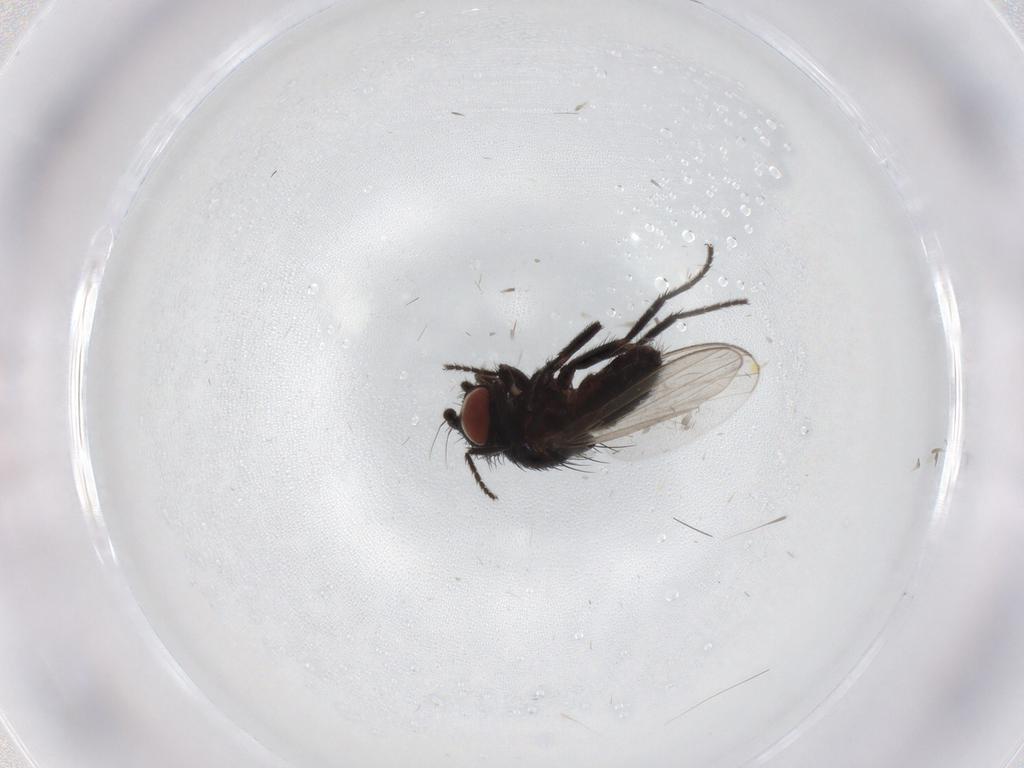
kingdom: Animalia
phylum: Arthropoda
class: Insecta
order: Diptera
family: Milichiidae
